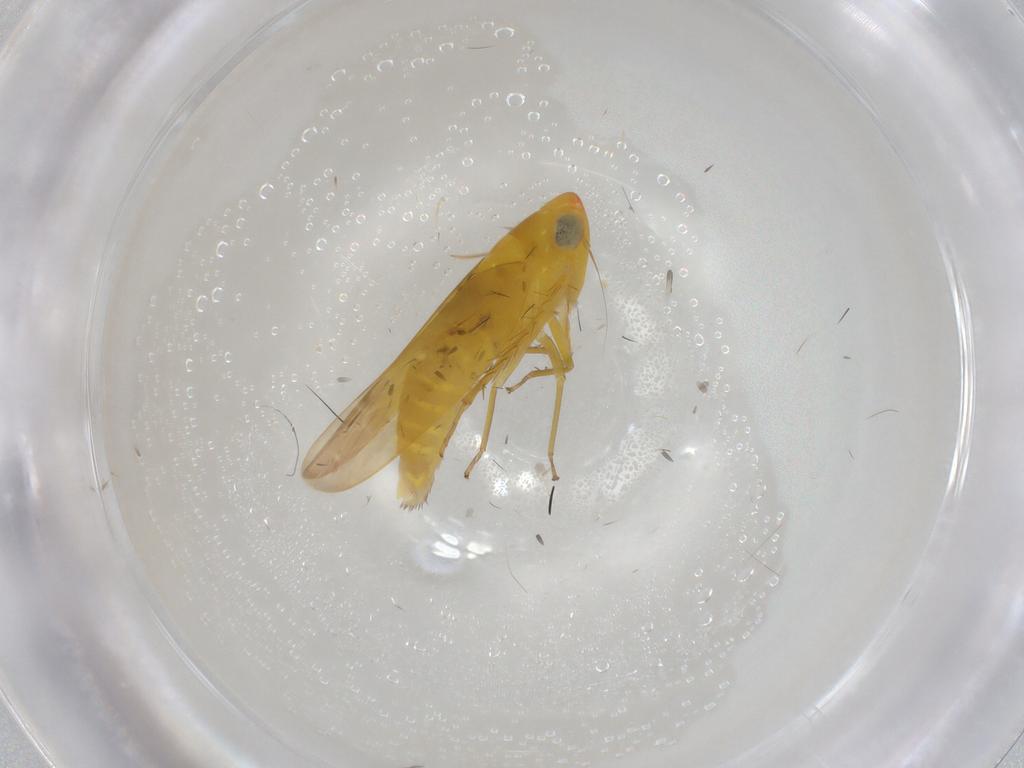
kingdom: Animalia
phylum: Arthropoda
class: Insecta
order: Hemiptera
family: Cicadellidae
